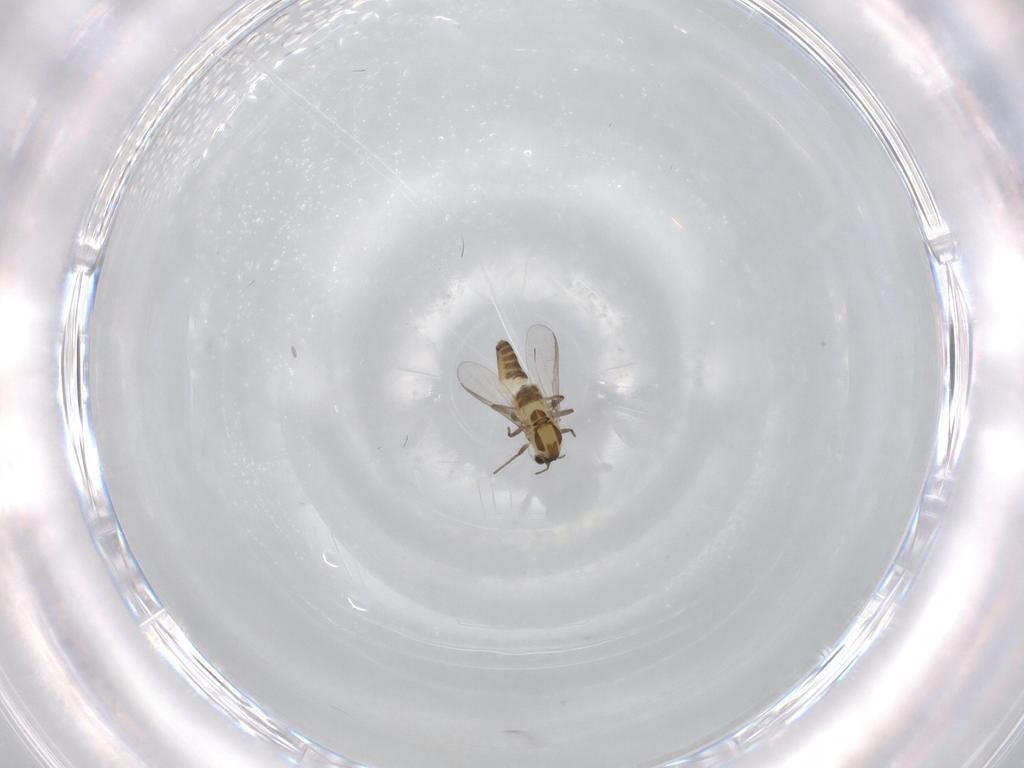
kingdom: Animalia
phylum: Arthropoda
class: Insecta
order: Diptera
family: Chironomidae
